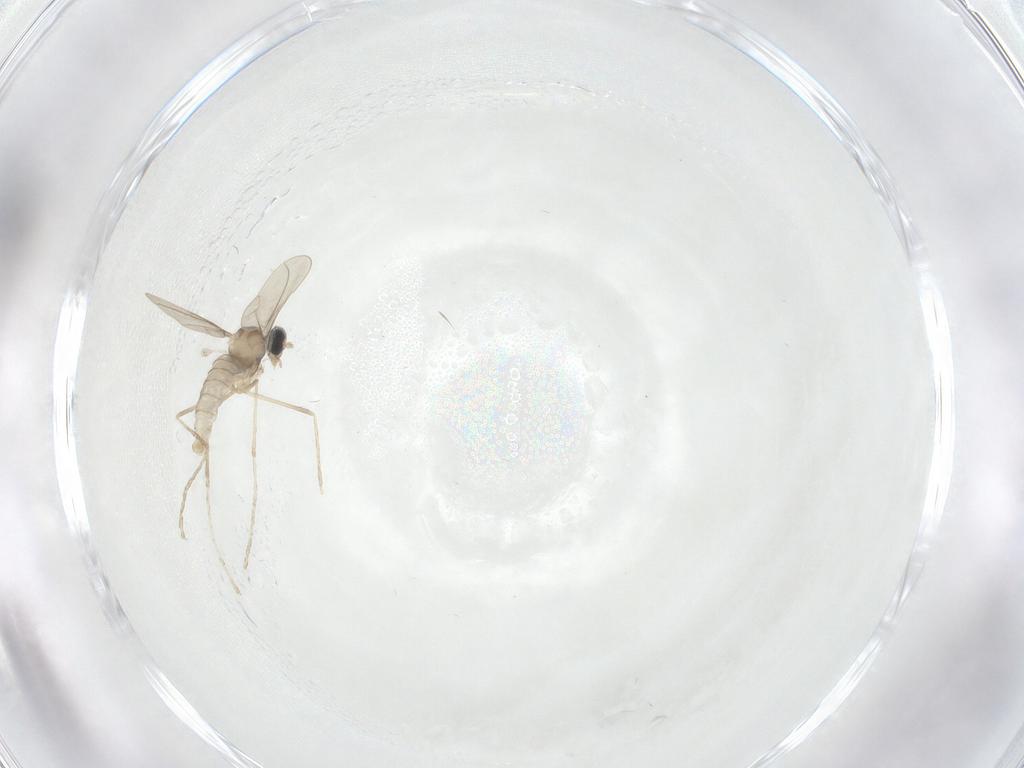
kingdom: Animalia
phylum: Arthropoda
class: Insecta
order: Diptera
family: Cecidomyiidae
